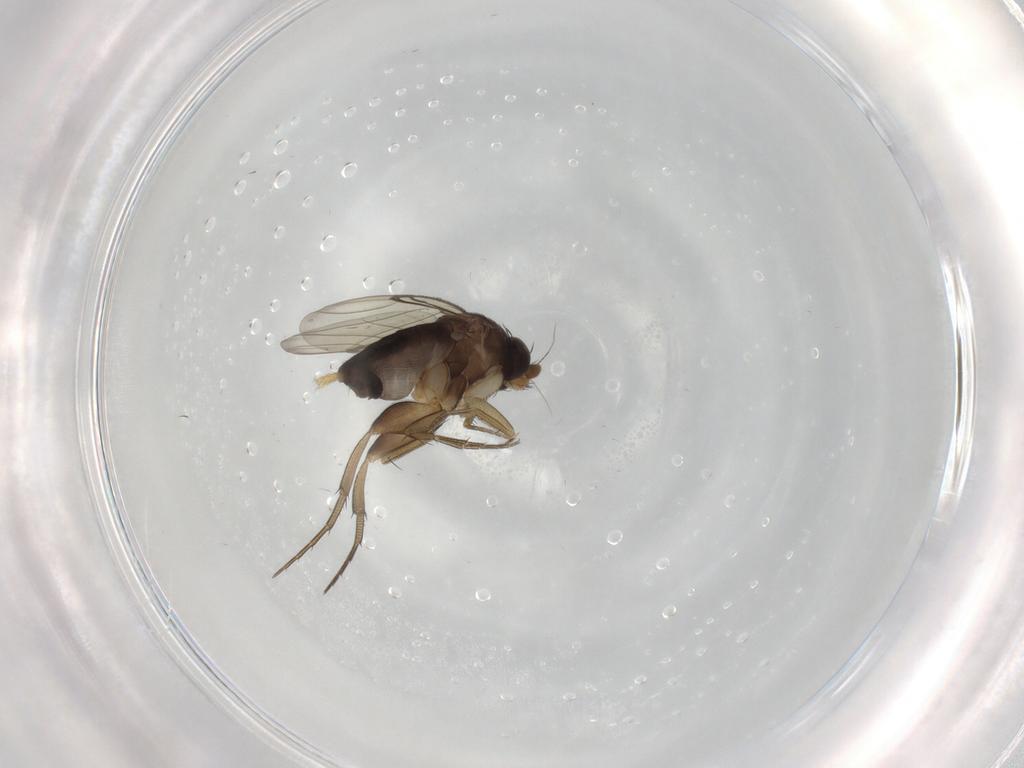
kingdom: Animalia
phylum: Arthropoda
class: Insecta
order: Diptera
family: Phoridae
